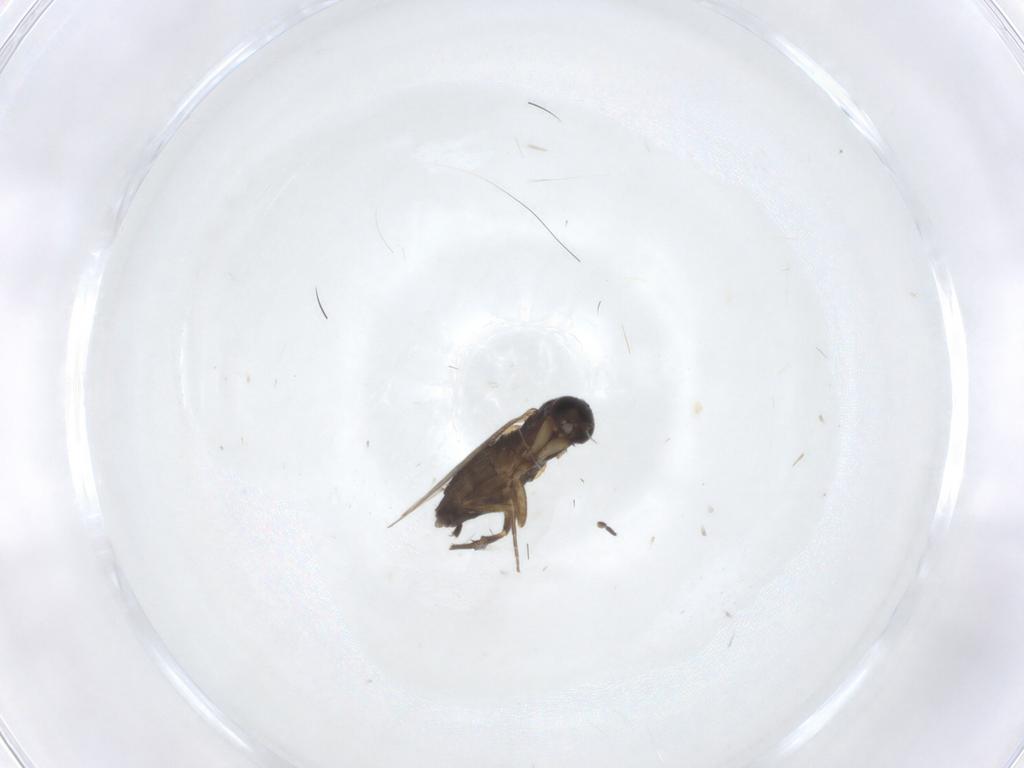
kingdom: Animalia
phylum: Arthropoda
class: Insecta
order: Diptera
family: Phoridae
